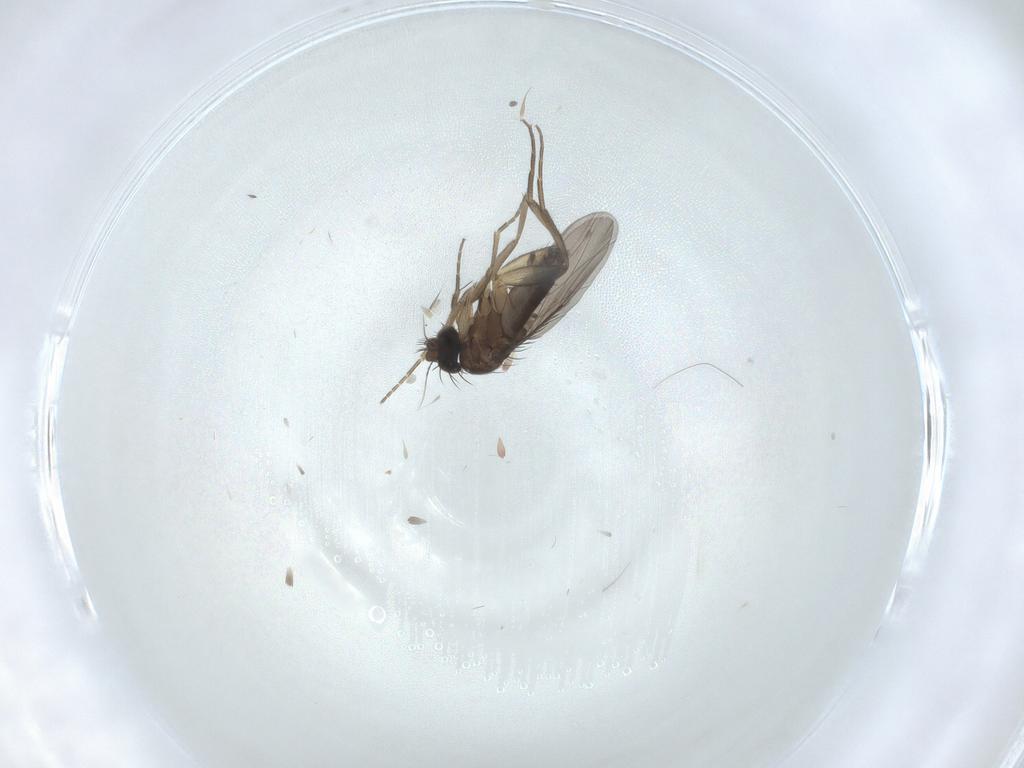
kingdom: Animalia
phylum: Arthropoda
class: Insecta
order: Diptera
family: Phoridae
